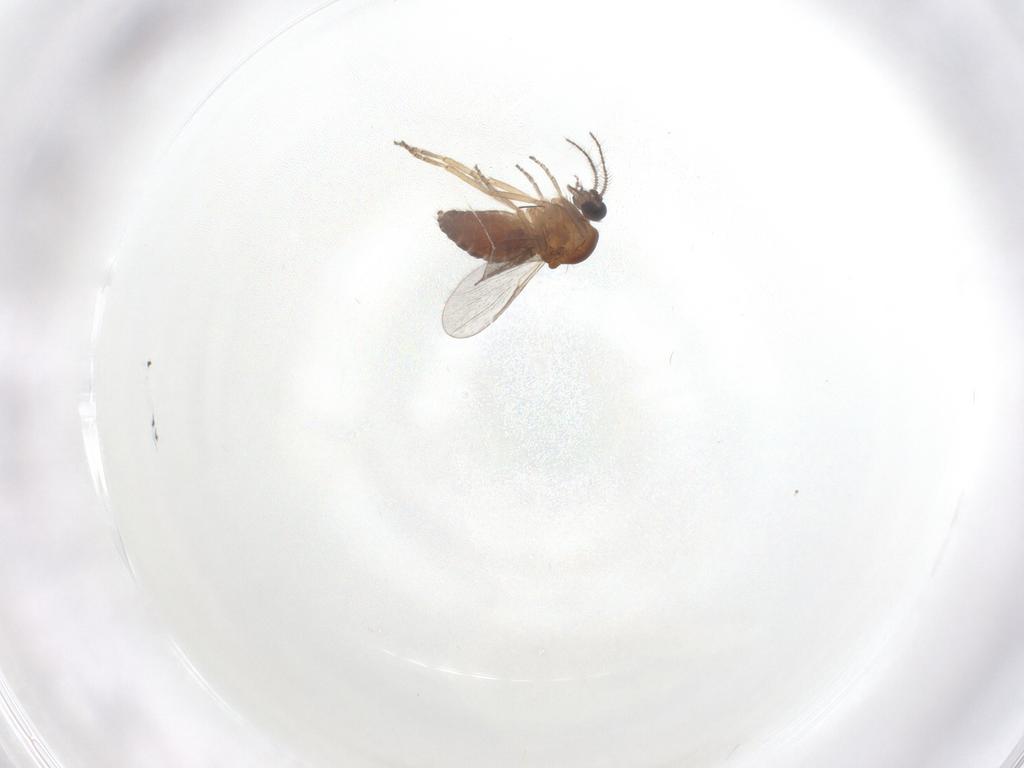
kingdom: Animalia
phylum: Arthropoda
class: Insecta
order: Diptera
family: Ceratopogonidae
